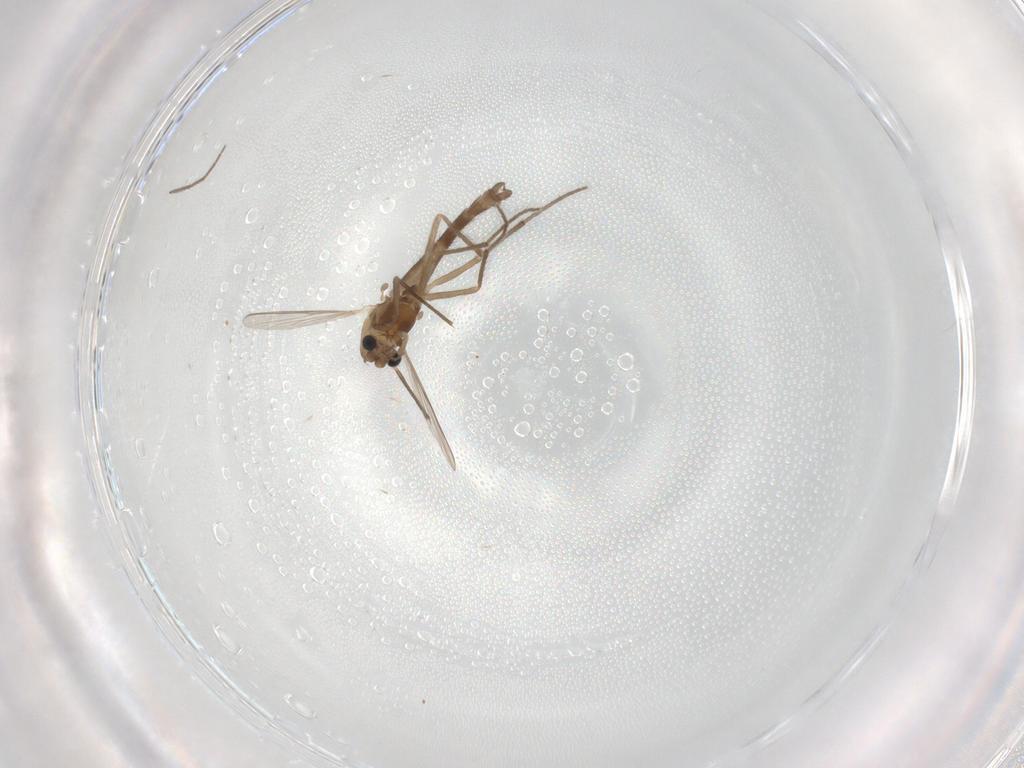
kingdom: Animalia
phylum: Arthropoda
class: Insecta
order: Diptera
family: Chironomidae
